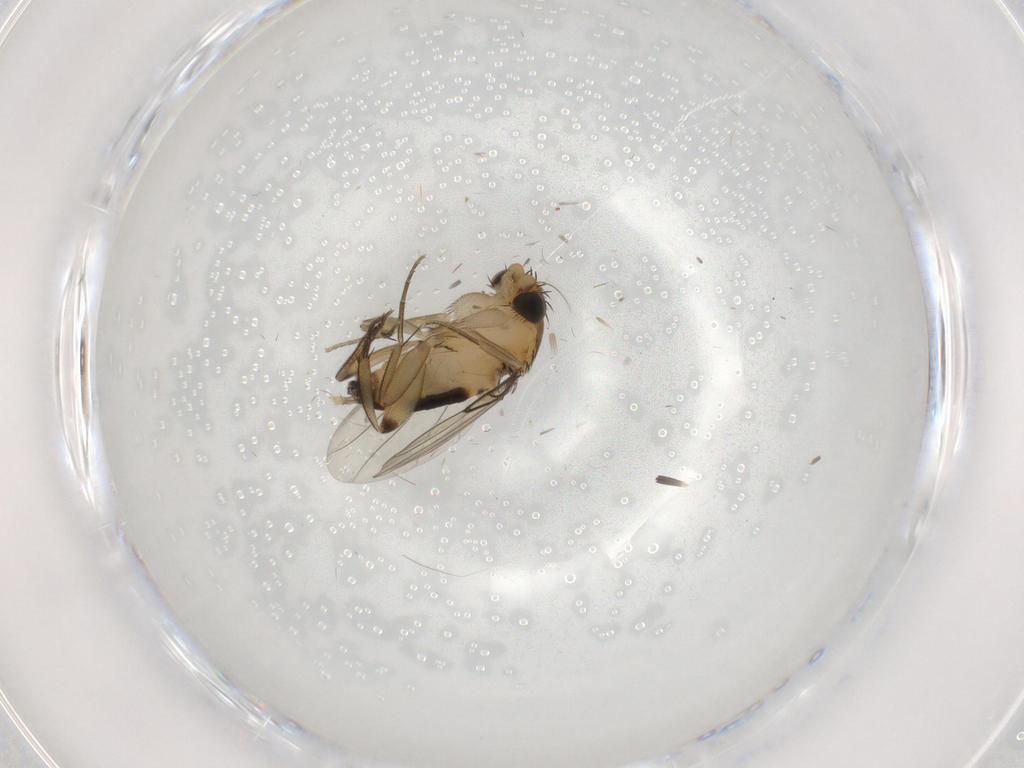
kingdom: Animalia
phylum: Arthropoda
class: Insecta
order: Diptera
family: Phoridae
